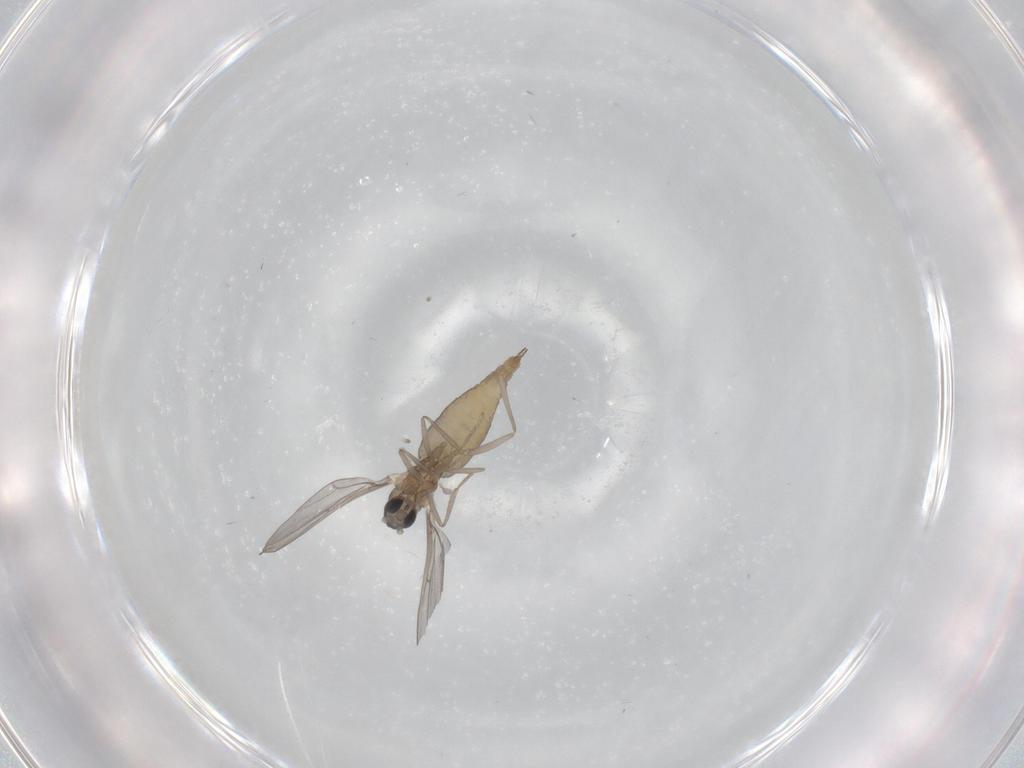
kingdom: Animalia
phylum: Arthropoda
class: Insecta
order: Diptera
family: Cecidomyiidae
